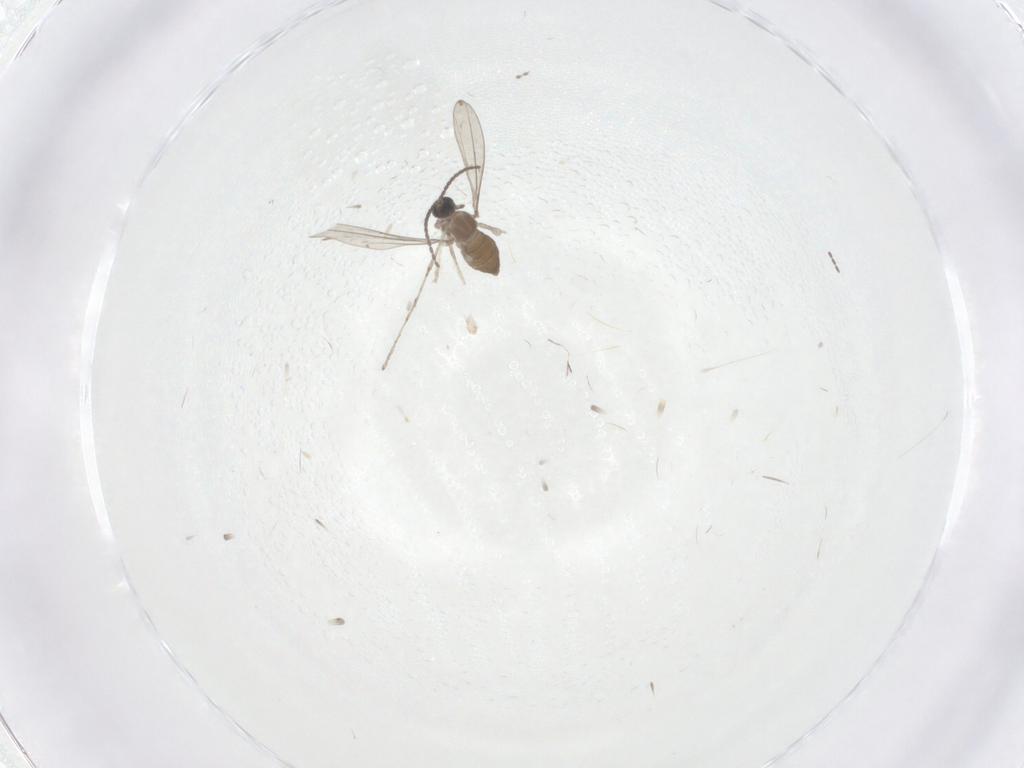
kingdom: Animalia
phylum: Arthropoda
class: Insecta
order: Diptera
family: Cecidomyiidae
